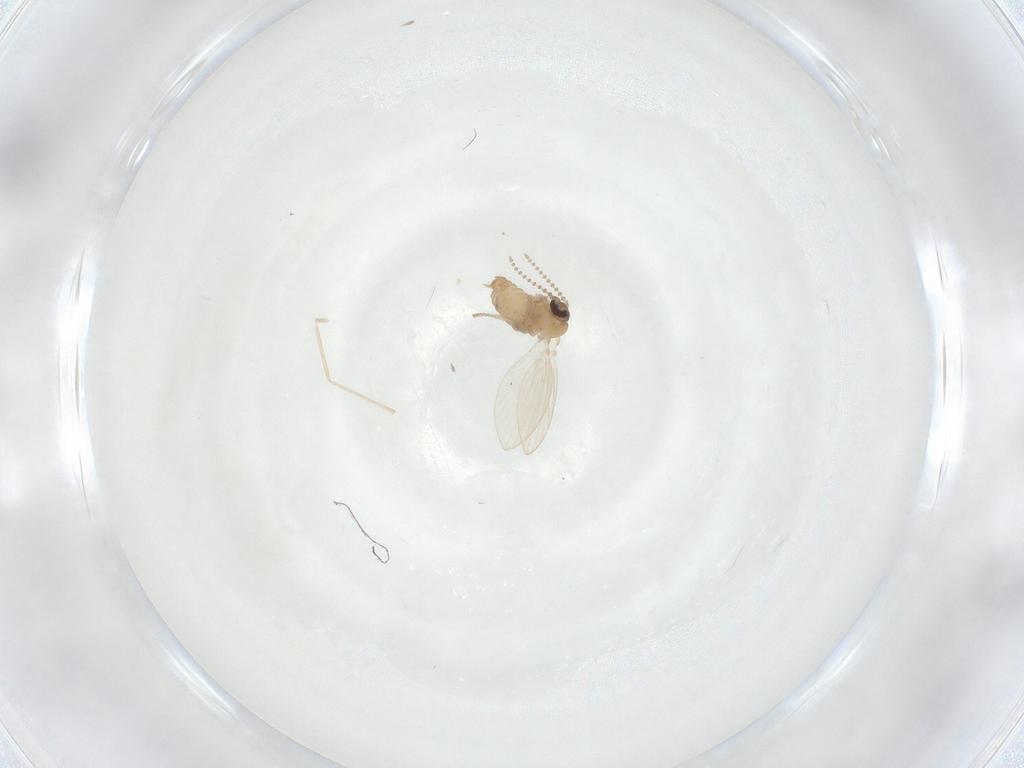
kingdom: Animalia
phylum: Arthropoda
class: Insecta
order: Diptera
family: Psychodidae
